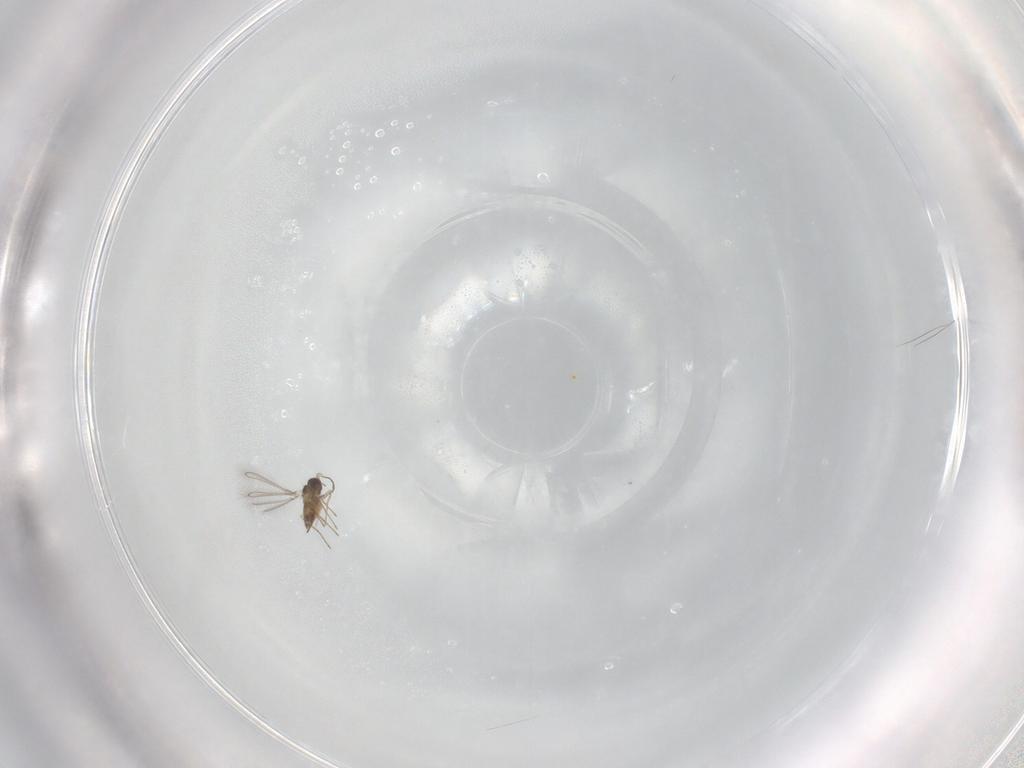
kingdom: Animalia
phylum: Arthropoda
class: Insecta
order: Hymenoptera
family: Mymaridae
